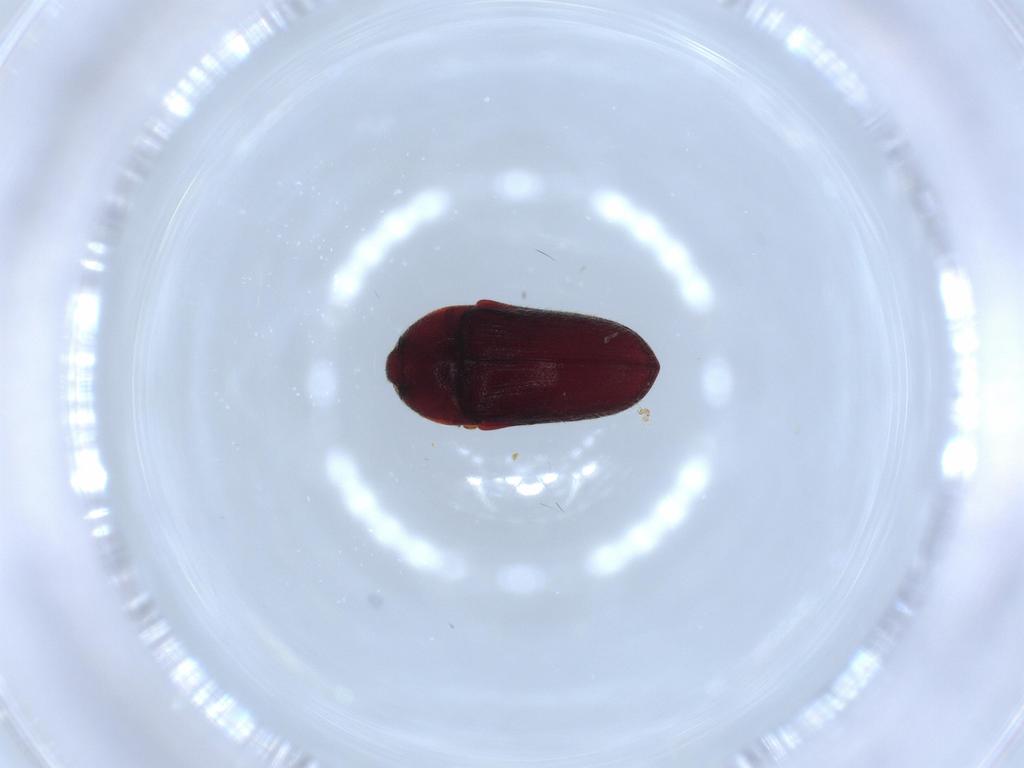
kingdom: Animalia
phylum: Arthropoda
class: Insecta
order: Coleoptera
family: Throscidae
